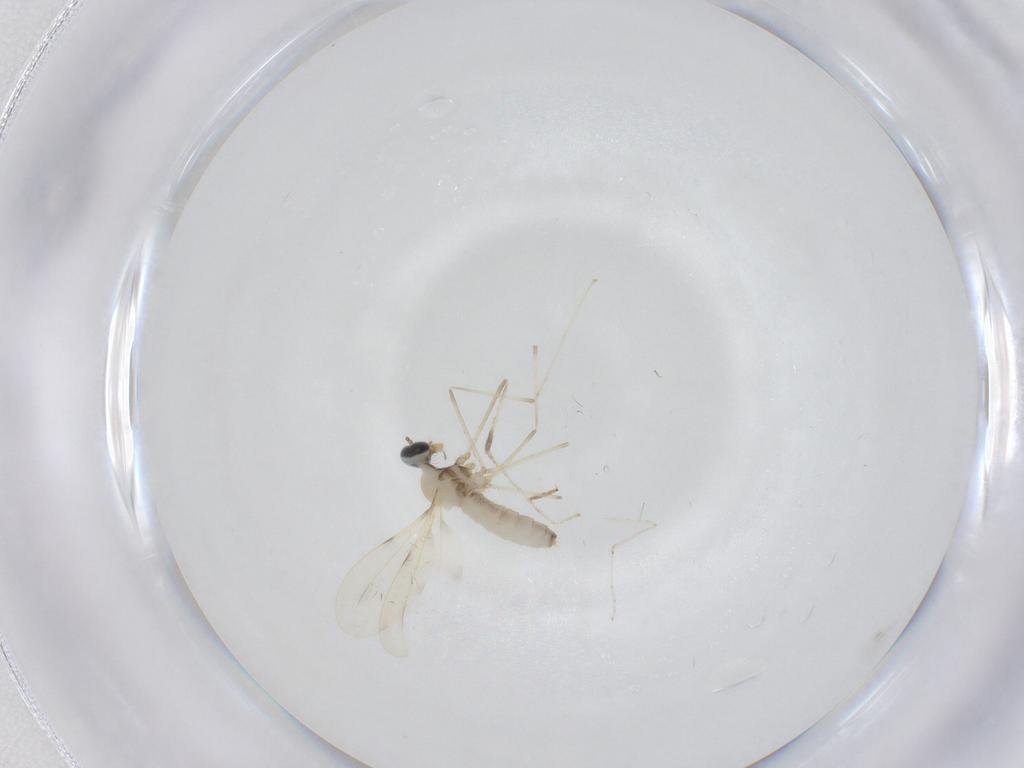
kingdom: Animalia
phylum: Arthropoda
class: Insecta
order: Diptera
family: Cecidomyiidae
